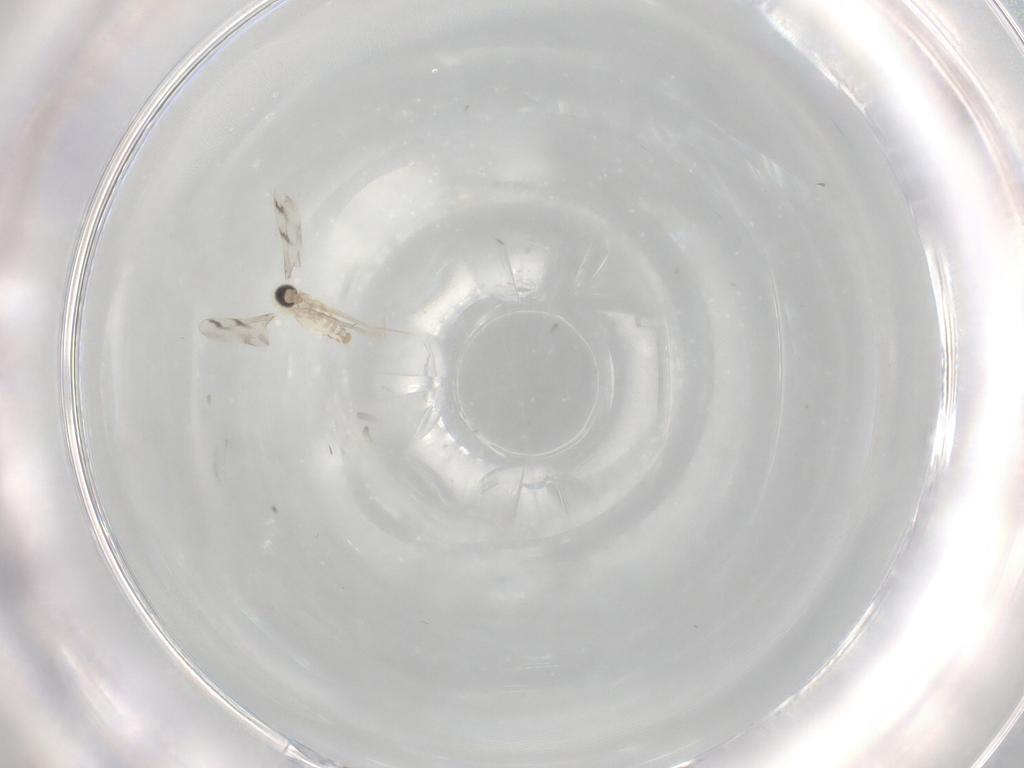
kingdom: Animalia
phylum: Arthropoda
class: Insecta
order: Diptera
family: Cecidomyiidae
